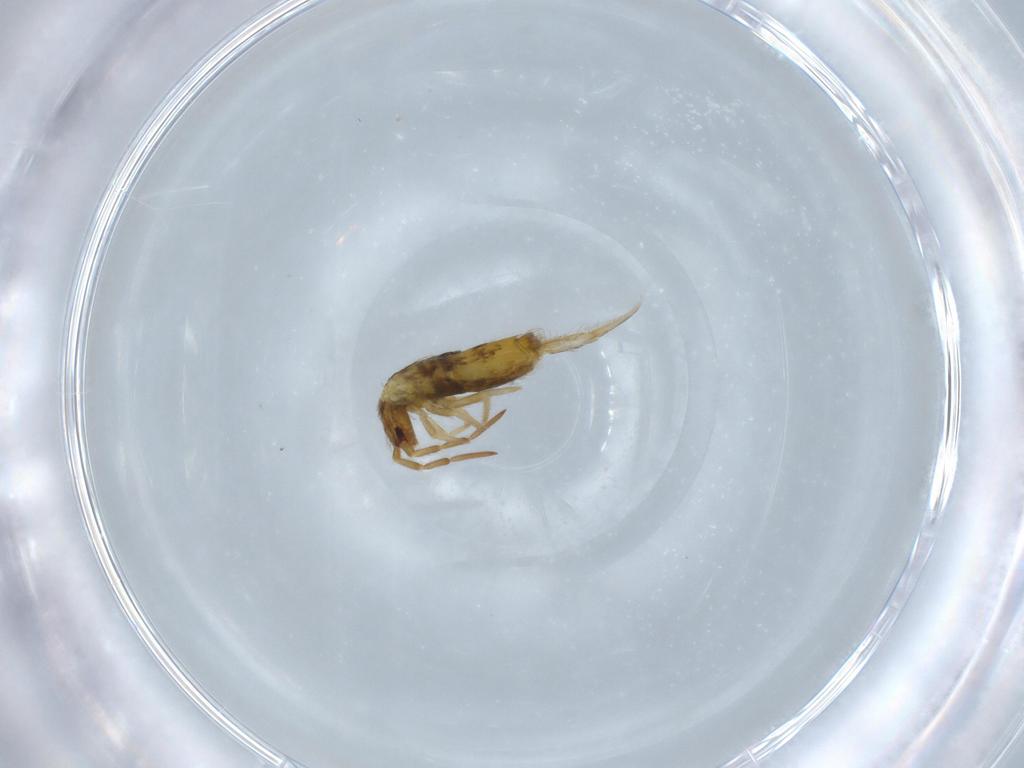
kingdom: Animalia
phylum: Arthropoda
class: Collembola
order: Entomobryomorpha
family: Entomobryidae
